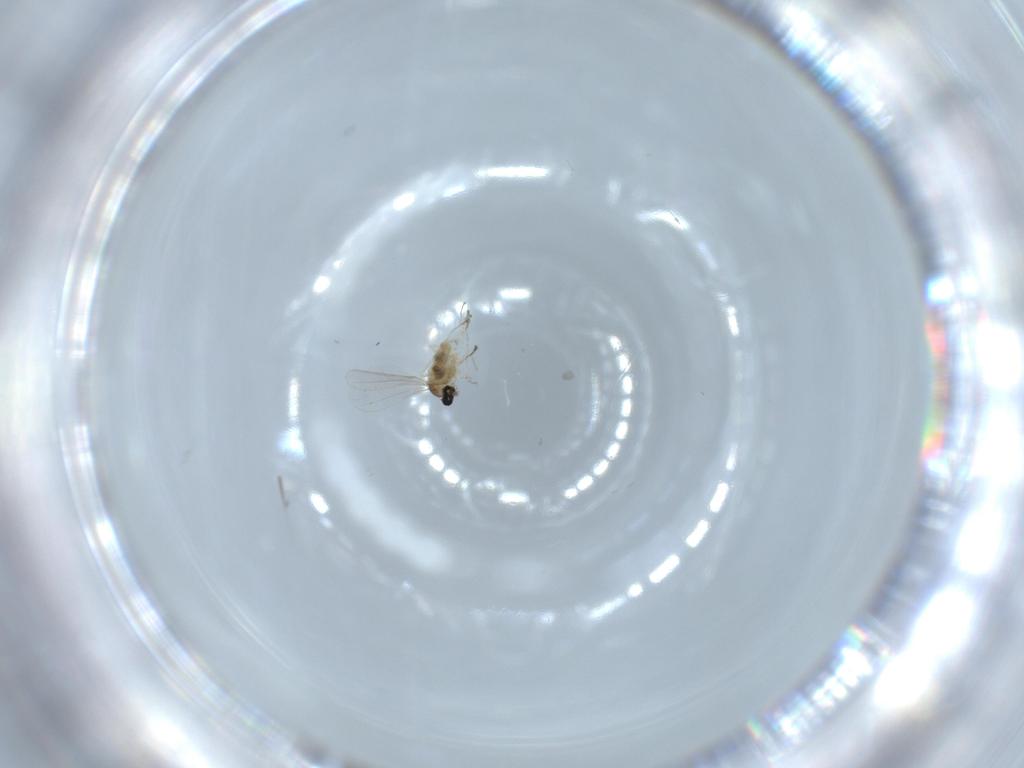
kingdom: Animalia
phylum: Arthropoda
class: Insecta
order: Diptera
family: Cecidomyiidae
